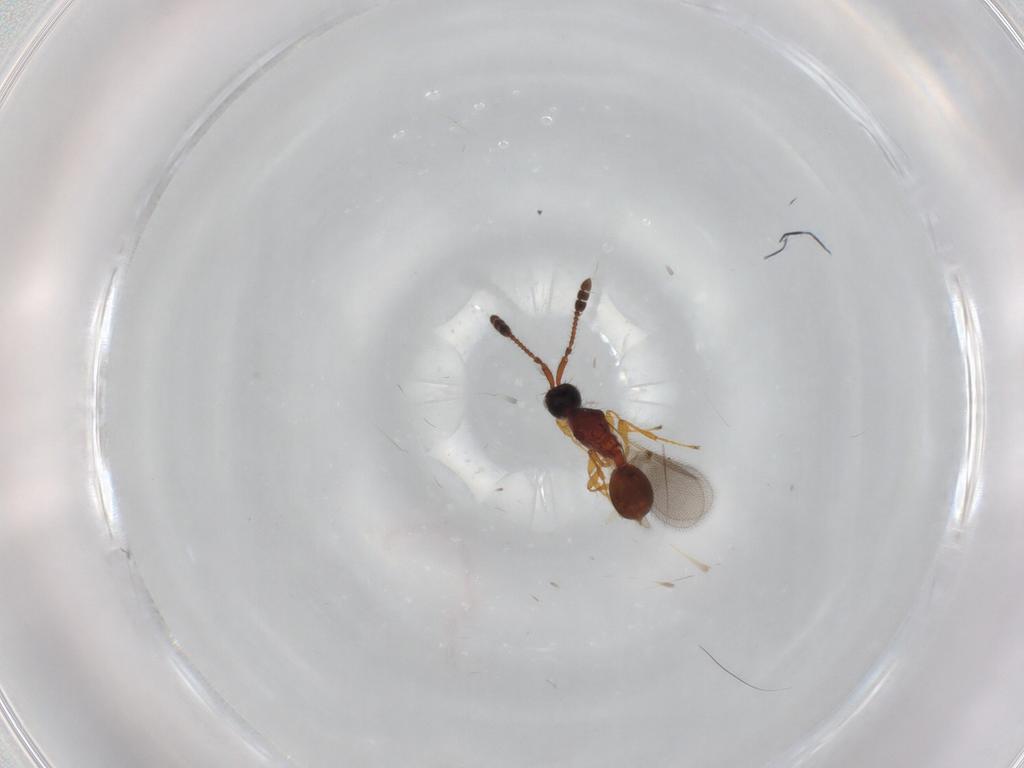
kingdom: Animalia
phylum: Arthropoda
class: Insecta
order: Hymenoptera
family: Diapriidae
